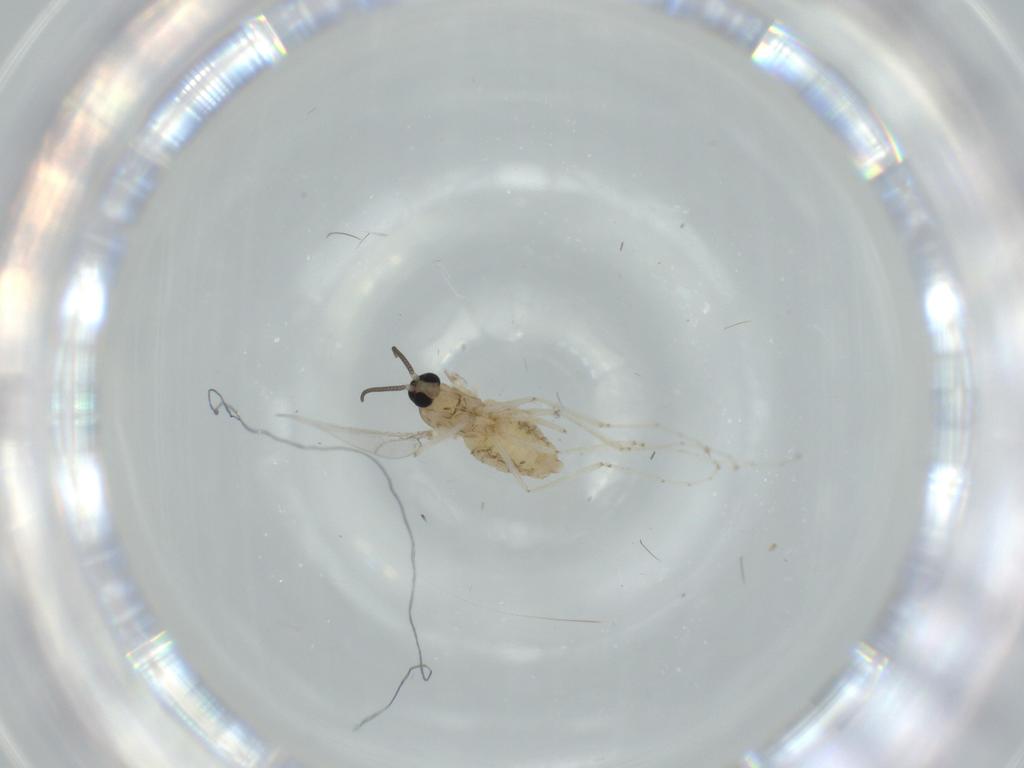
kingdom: Animalia
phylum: Arthropoda
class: Insecta
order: Diptera
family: Cecidomyiidae
